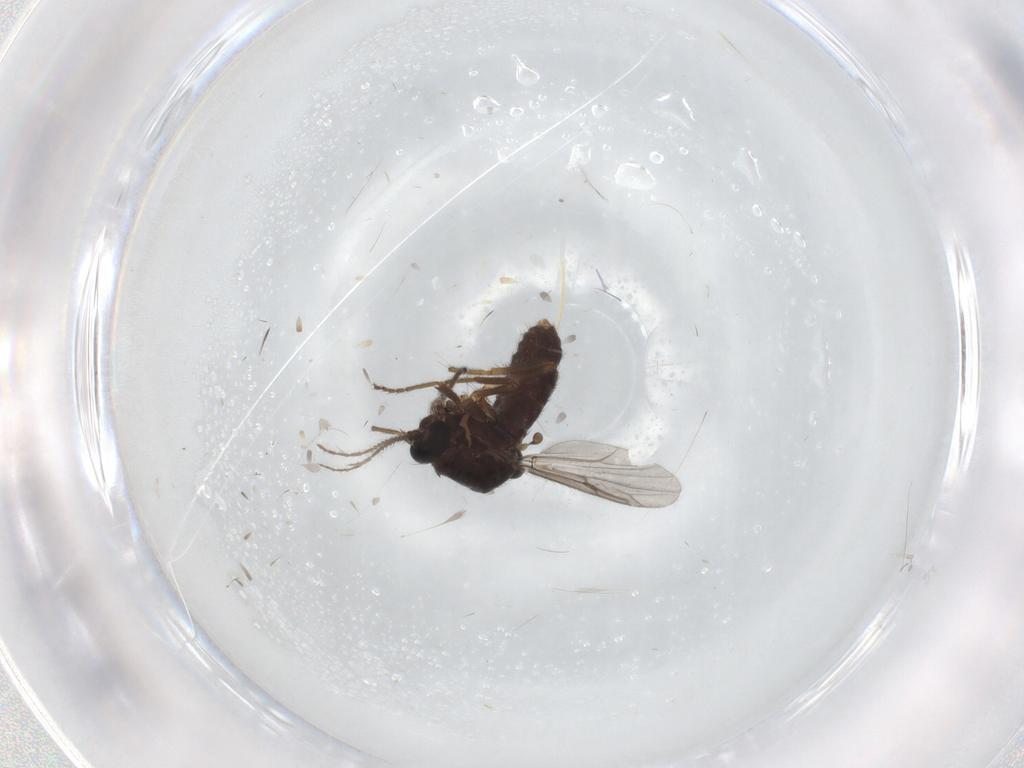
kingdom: Animalia
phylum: Arthropoda
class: Insecta
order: Diptera
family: Ceratopogonidae
